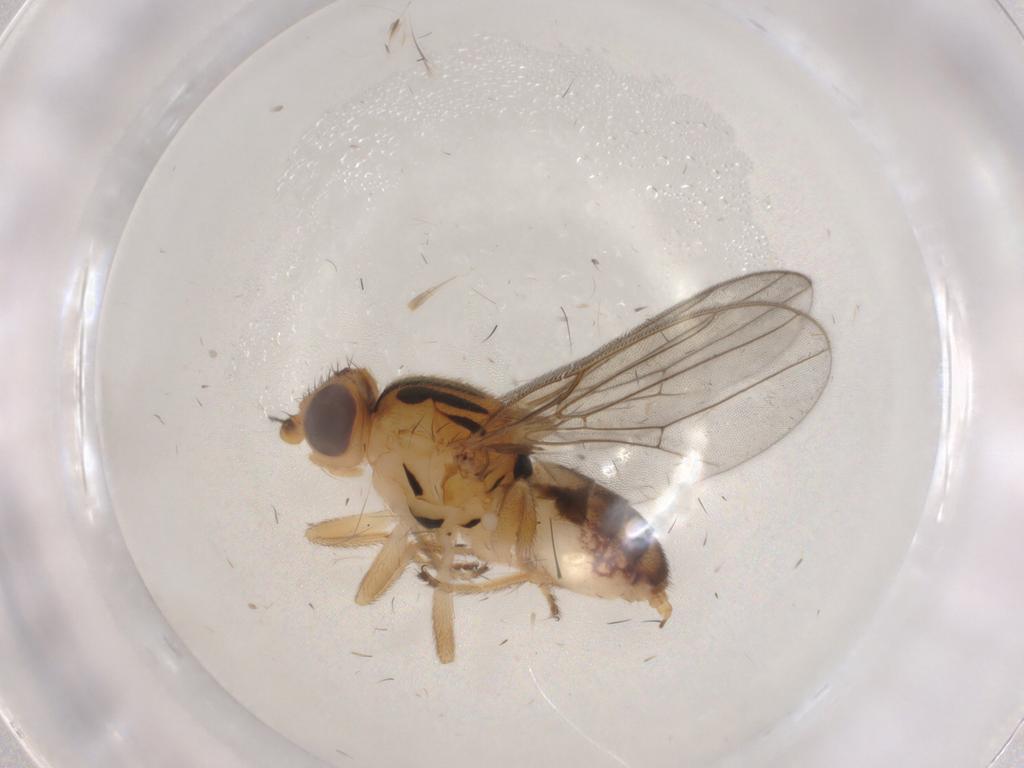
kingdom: Animalia
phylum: Arthropoda
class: Insecta
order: Diptera
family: Chloropidae
